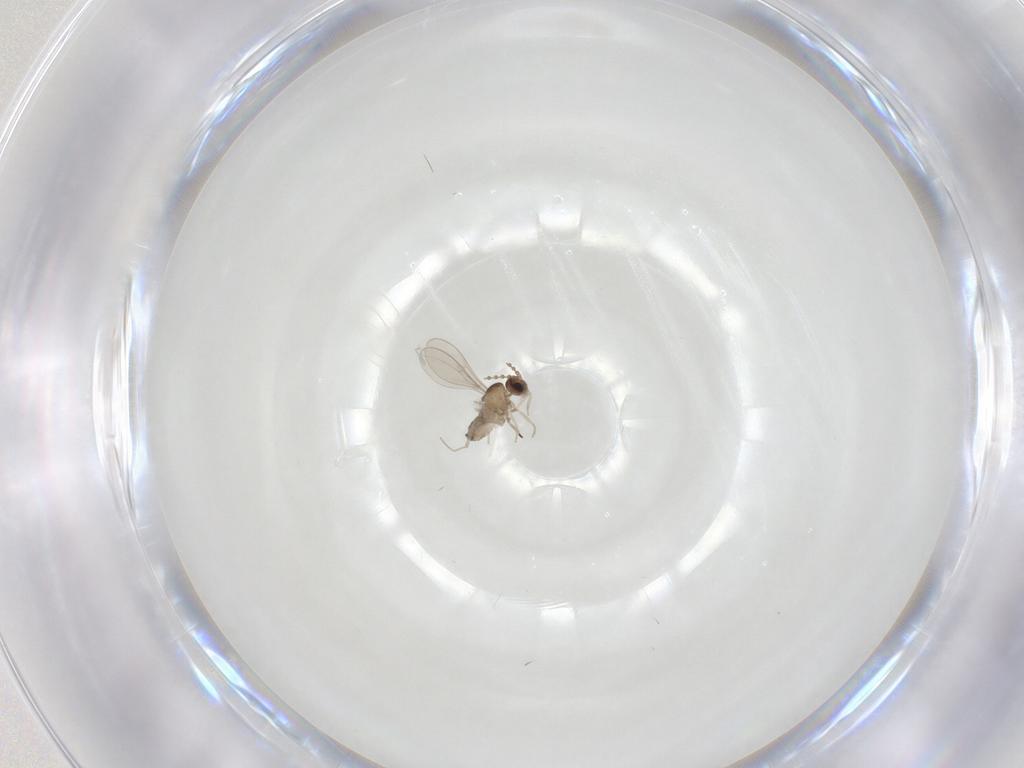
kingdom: Animalia
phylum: Arthropoda
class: Insecta
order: Diptera
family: Cecidomyiidae
